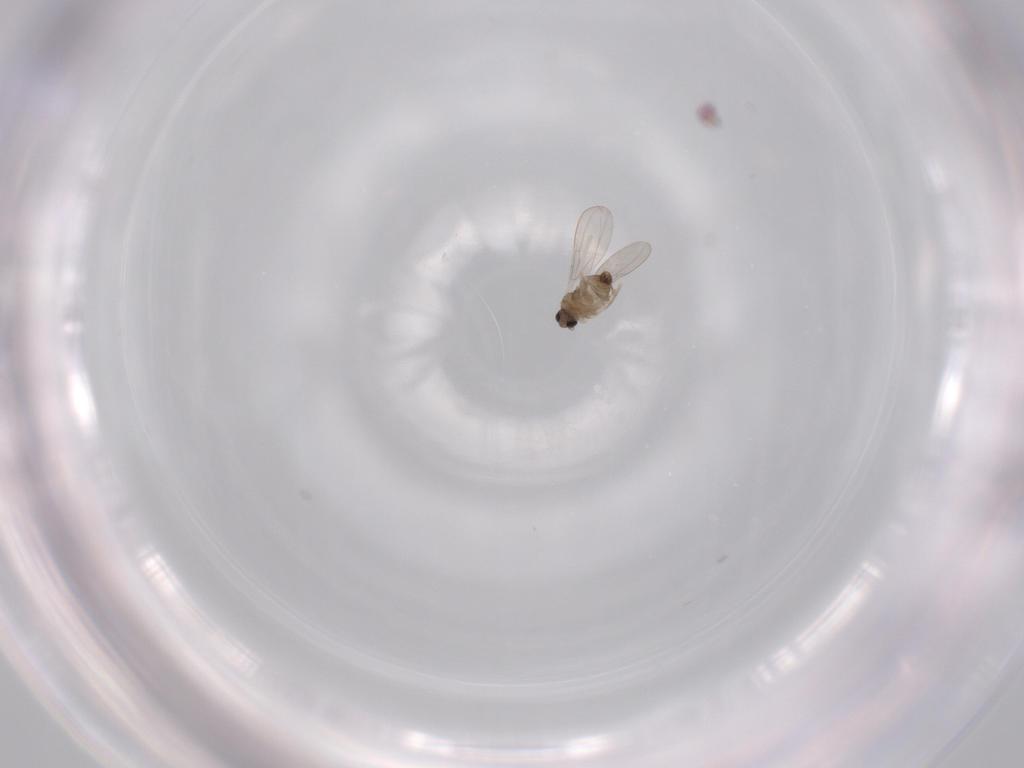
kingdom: Animalia
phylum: Arthropoda
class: Insecta
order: Diptera
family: Cecidomyiidae
